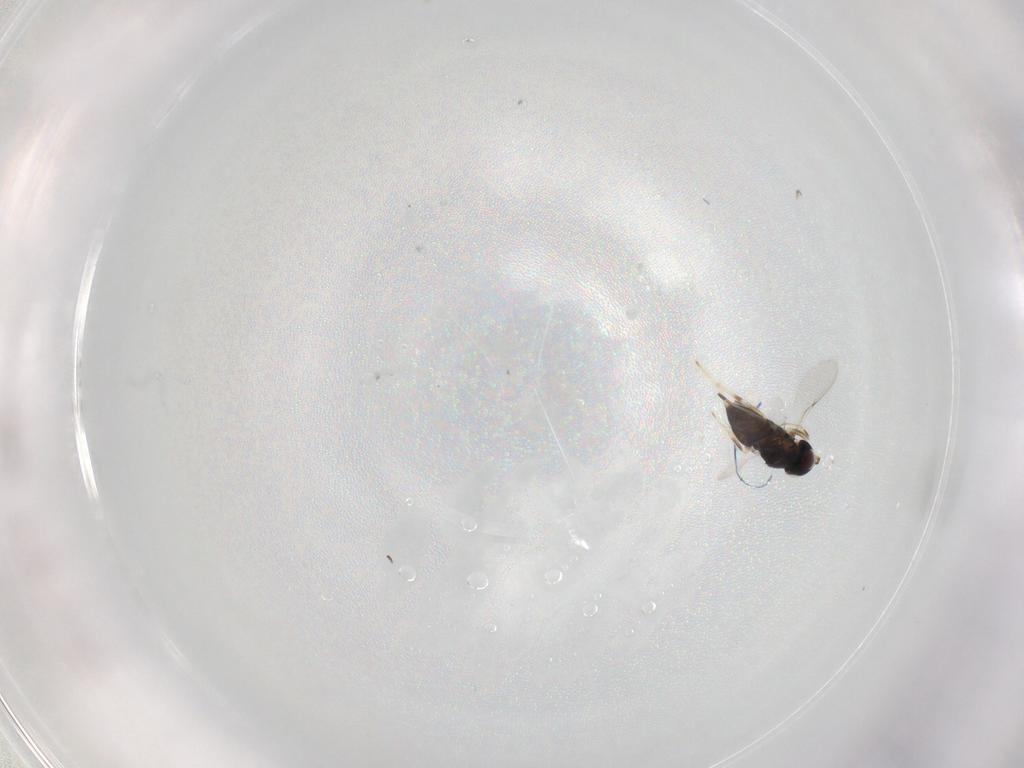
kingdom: Animalia
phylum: Arthropoda
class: Insecta
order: Hymenoptera
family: Encyrtidae
